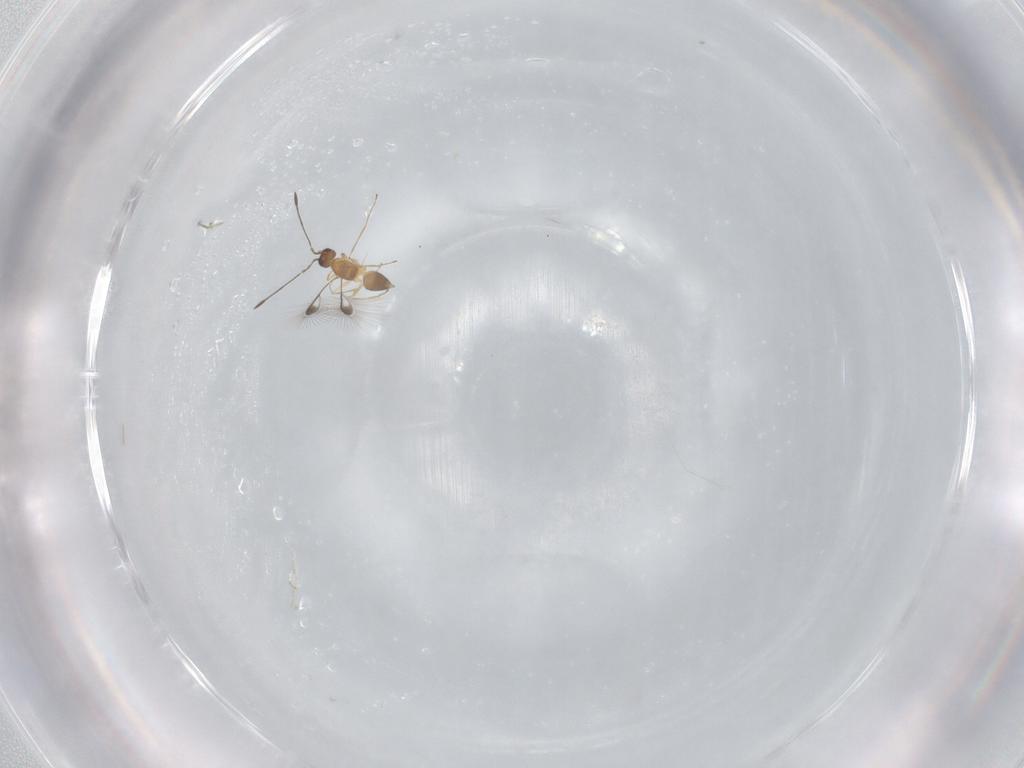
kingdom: Animalia
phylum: Arthropoda
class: Insecta
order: Hymenoptera
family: Mymaridae
